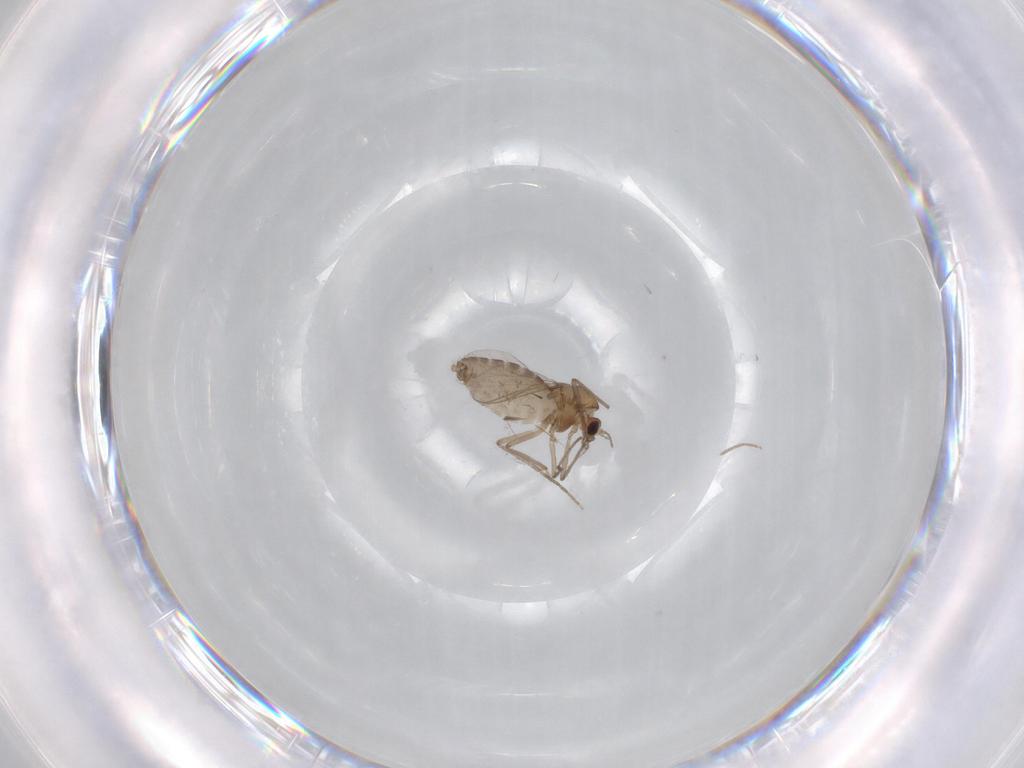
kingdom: Animalia
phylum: Arthropoda
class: Insecta
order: Diptera
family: Chironomidae
